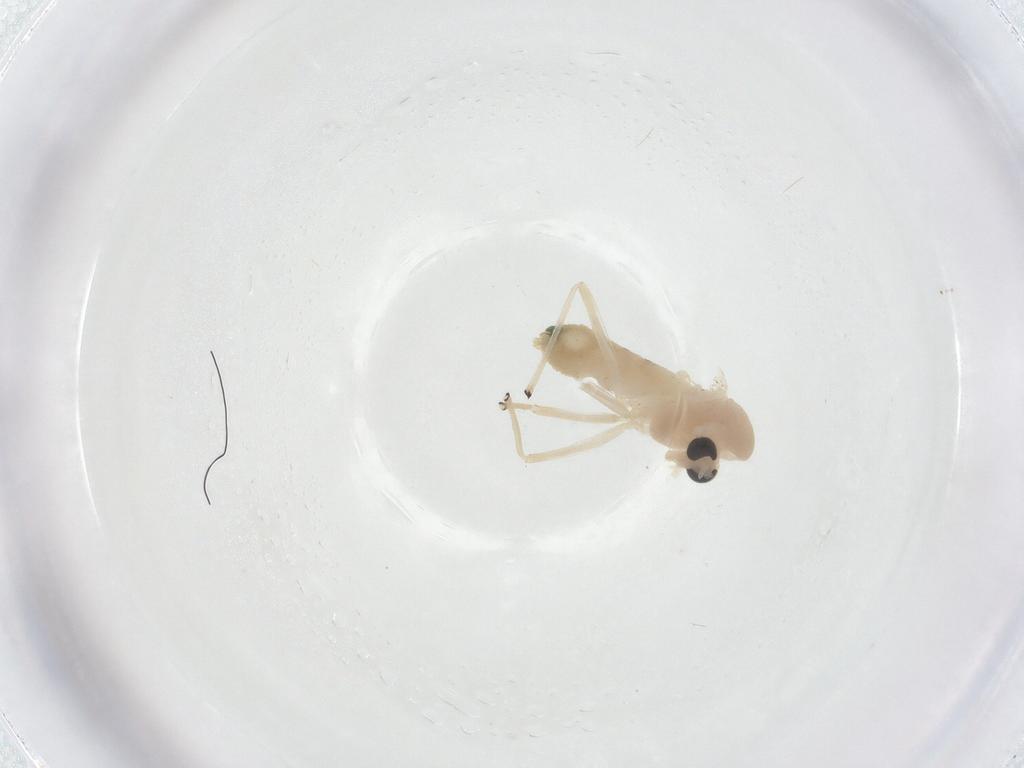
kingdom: Animalia
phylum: Arthropoda
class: Insecta
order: Diptera
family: Chironomidae
